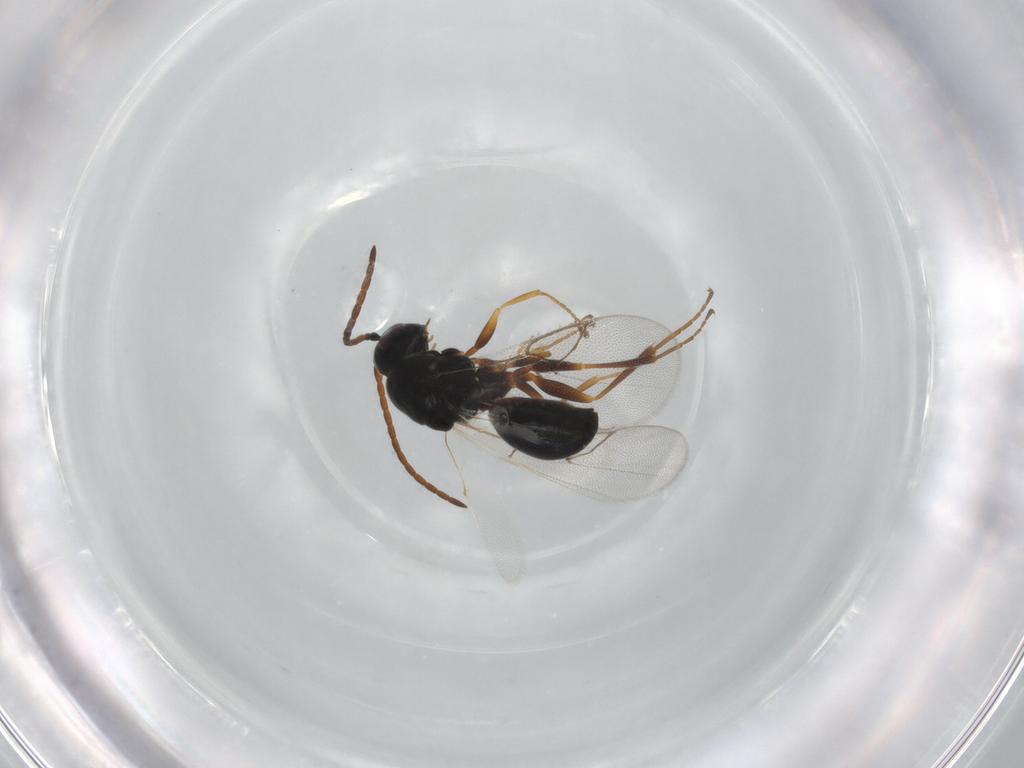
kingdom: Animalia
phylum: Arthropoda
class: Insecta
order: Hymenoptera
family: Figitidae
